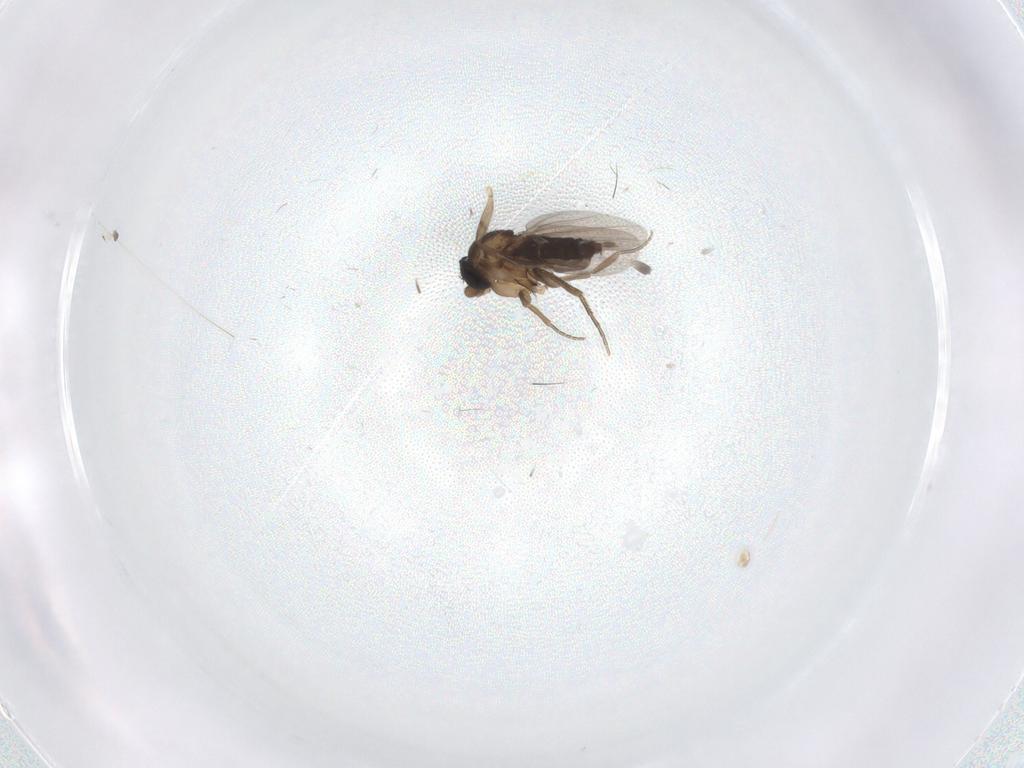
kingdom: Animalia
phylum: Arthropoda
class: Insecta
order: Diptera
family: Phoridae
